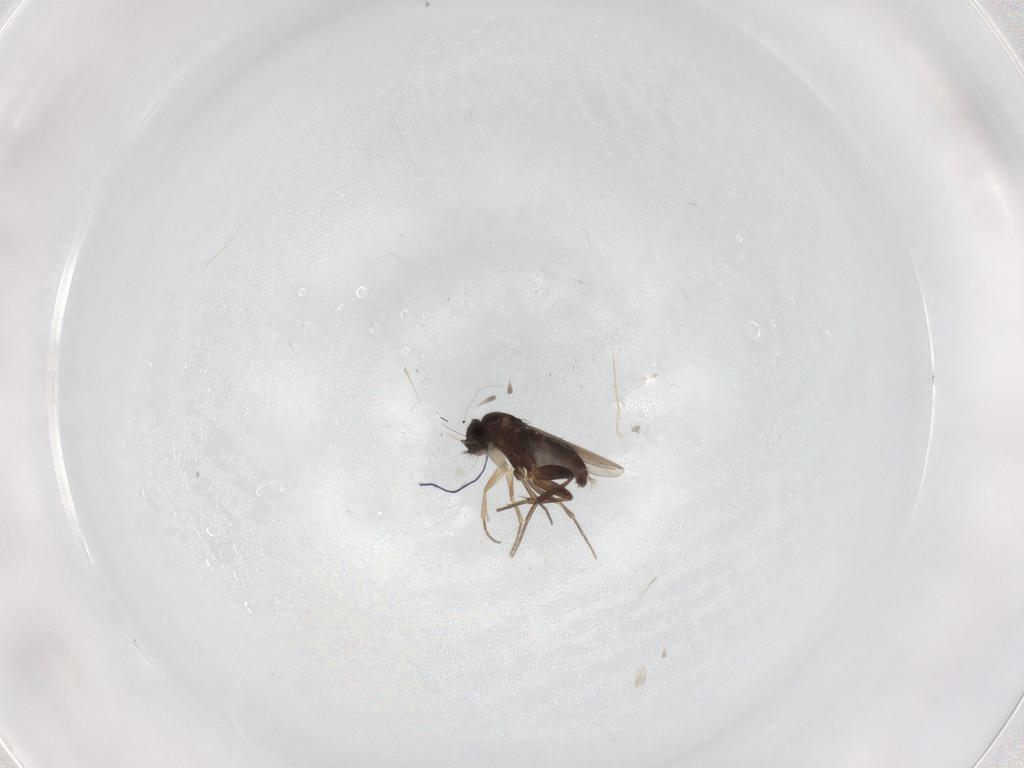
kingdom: Animalia
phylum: Arthropoda
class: Insecta
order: Diptera
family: Phoridae
